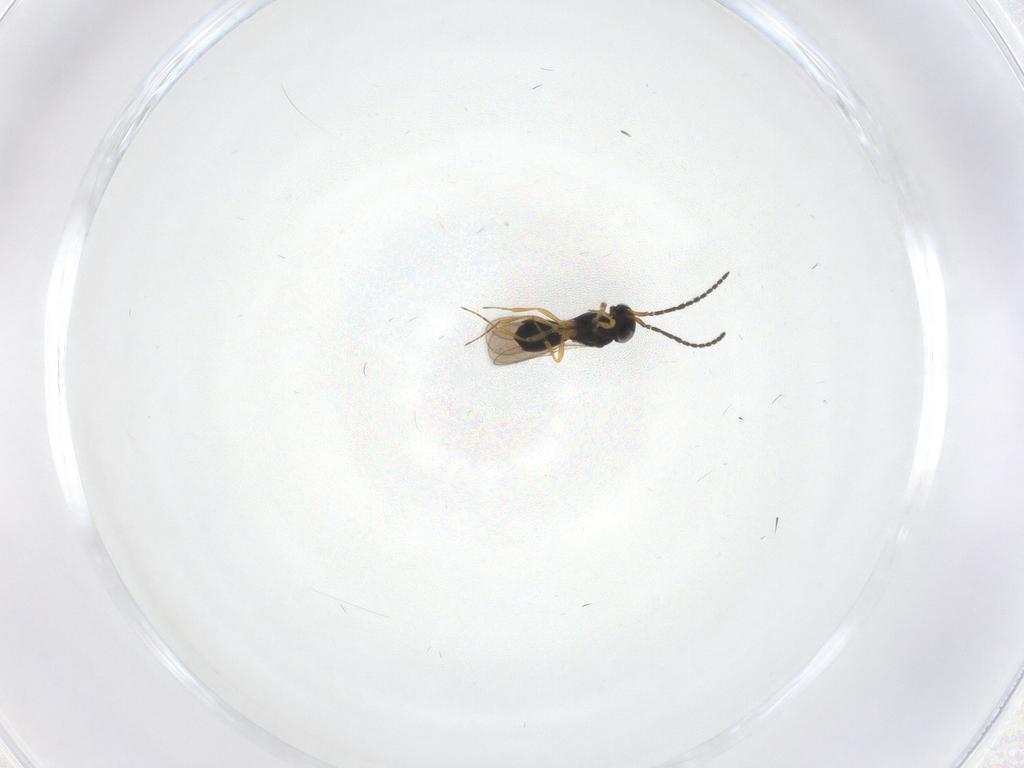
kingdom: Animalia
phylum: Arthropoda
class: Insecta
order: Hymenoptera
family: Scelionidae
